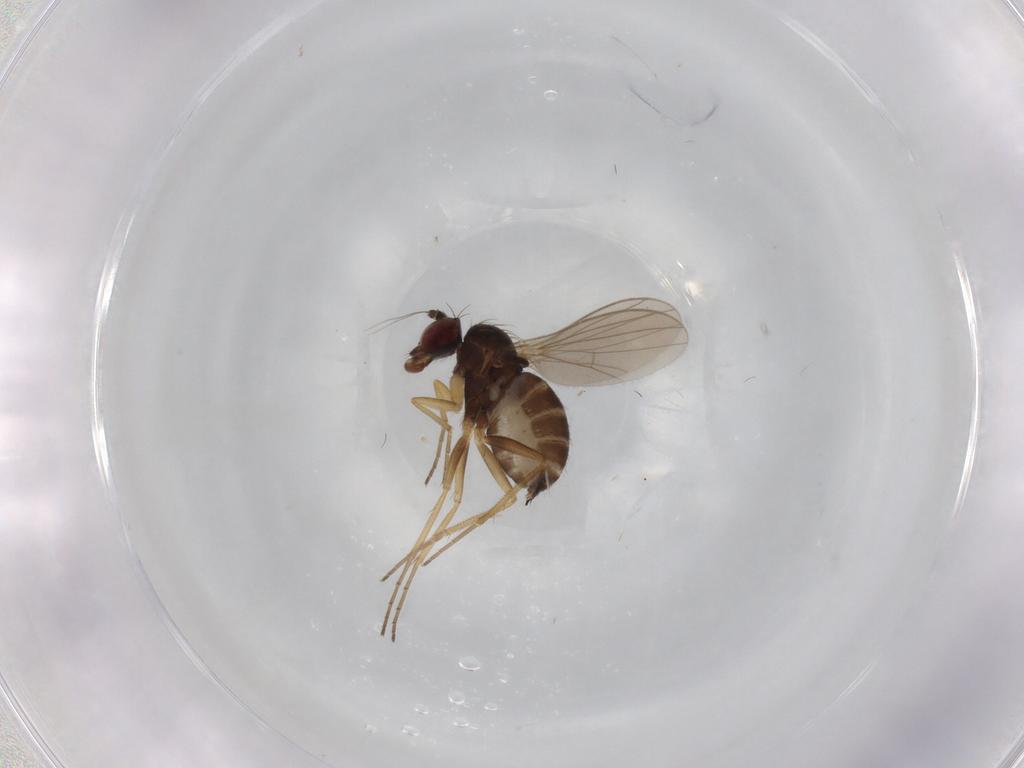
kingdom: Animalia
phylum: Arthropoda
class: Insecta
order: Diptera
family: Dolichopodidae
